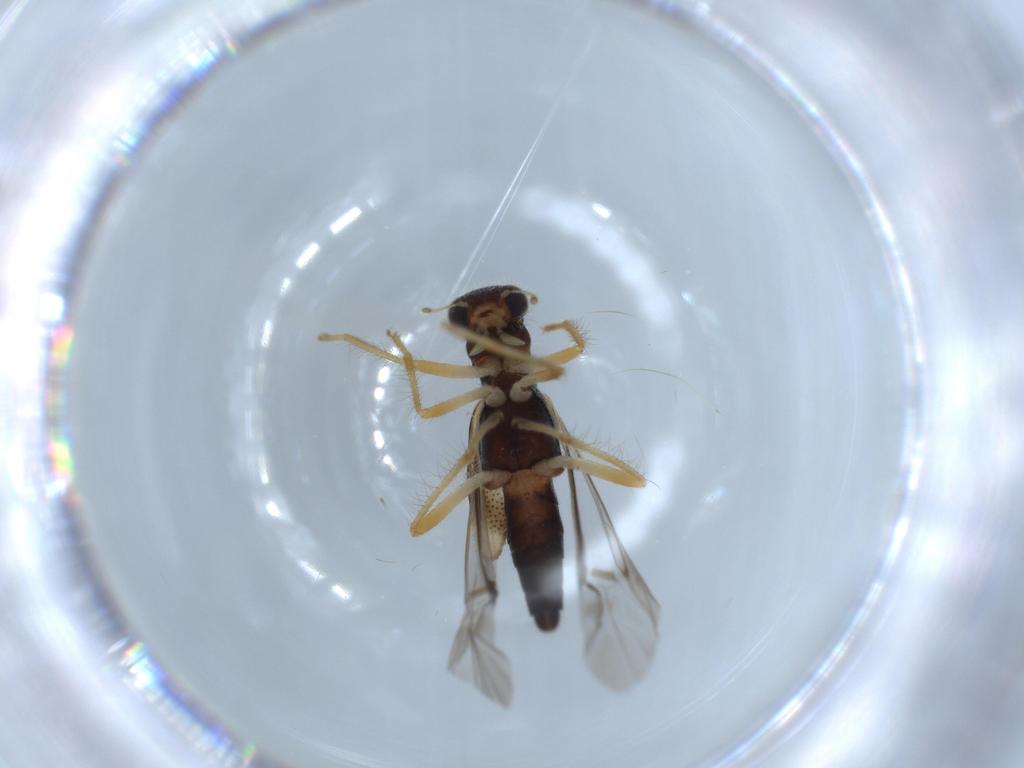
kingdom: Animalia
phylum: Arthropoda
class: Insecta
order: Coleoptera
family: Cleridae
